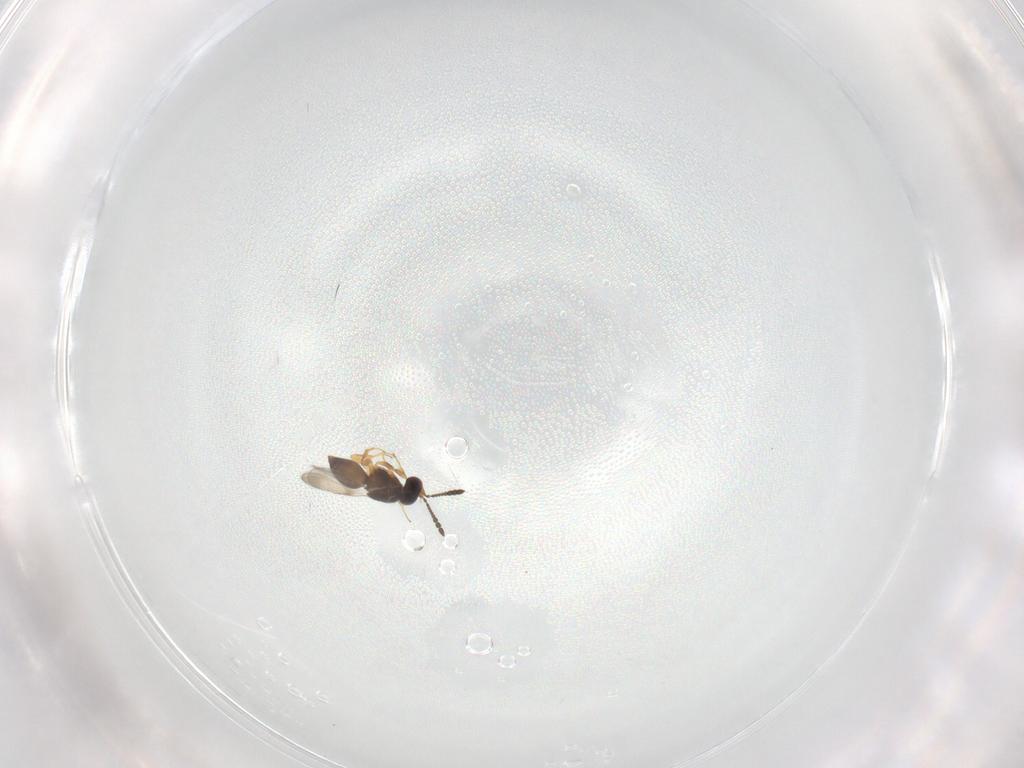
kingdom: Animalia
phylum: Arthropoda
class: Insecta
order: Hymenoptera
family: Ceraphronidae
